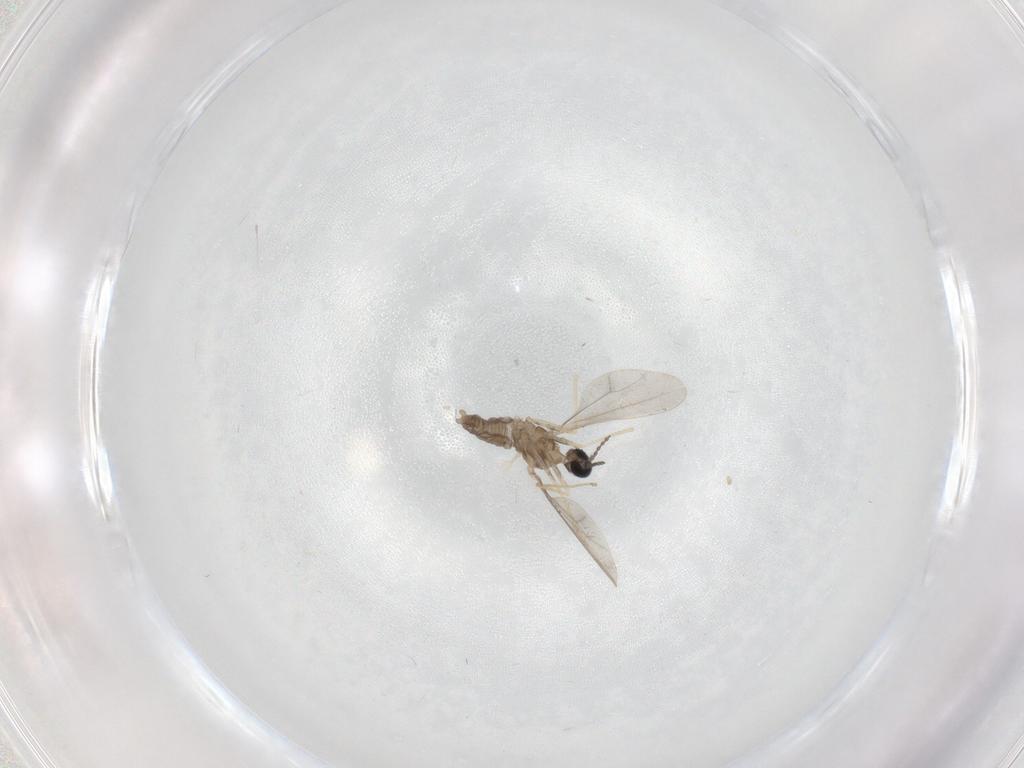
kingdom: Animalia
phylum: Arthropoda
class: Insecta
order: Diptera
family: Cecidomyiidae
